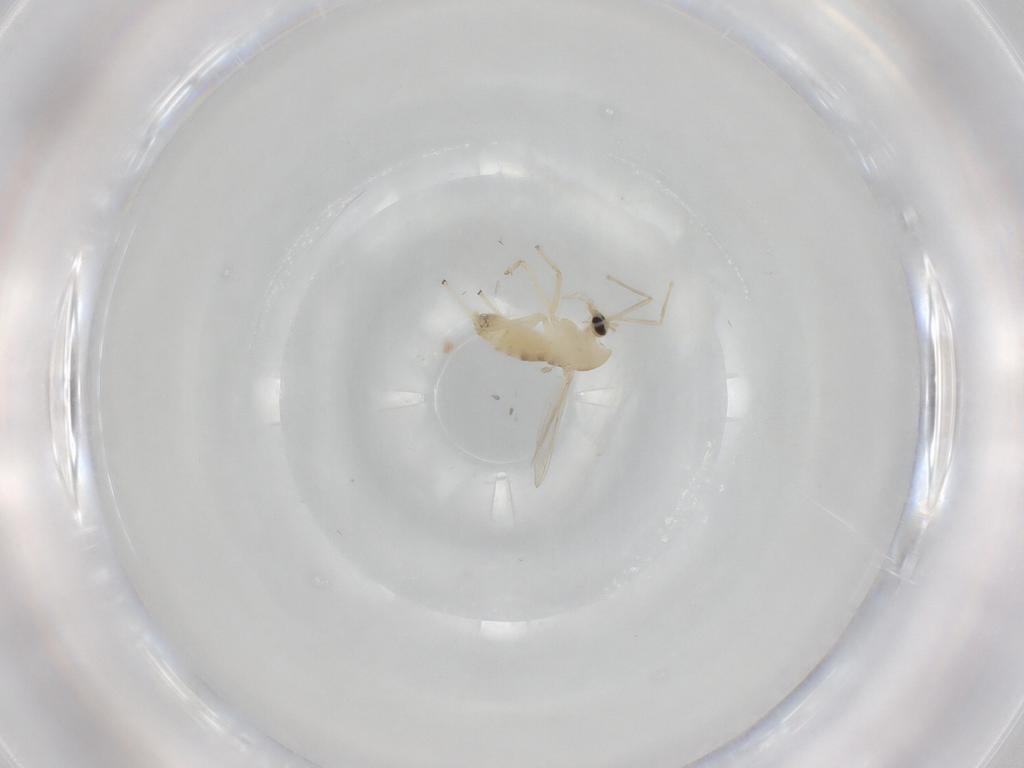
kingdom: Animalia
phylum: Arthropoda
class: Insecta
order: Diptera
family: Chironomidae
